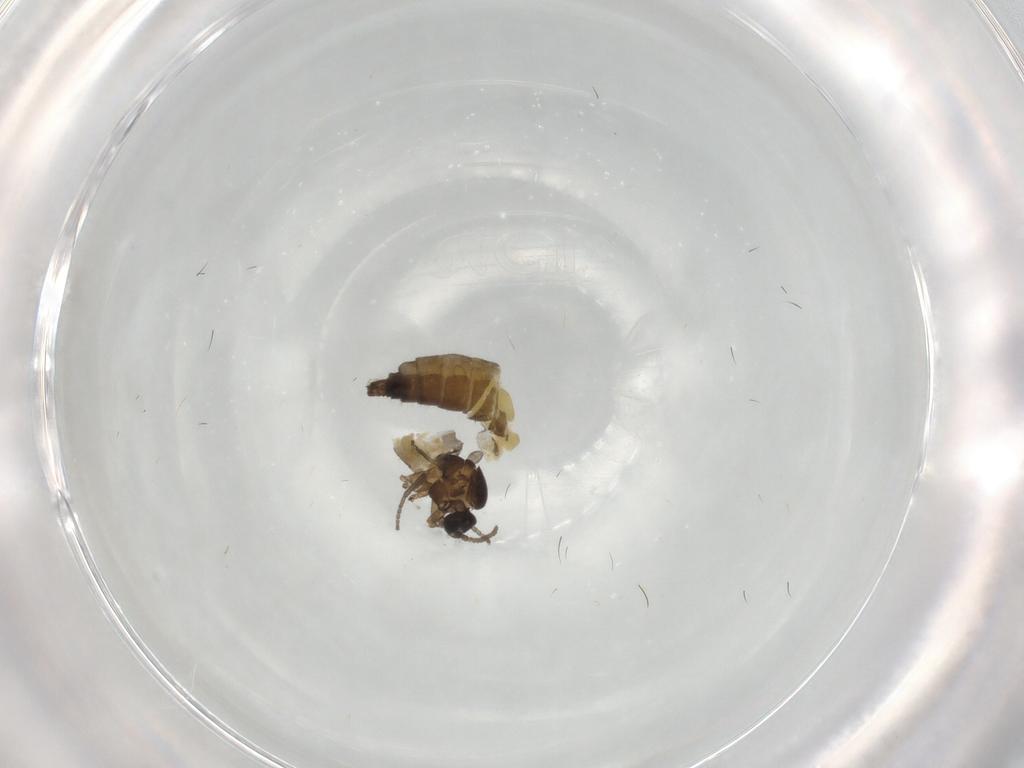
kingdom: Animalia
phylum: Arthropoda
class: Insecta
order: Diptera
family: Sciaridae
